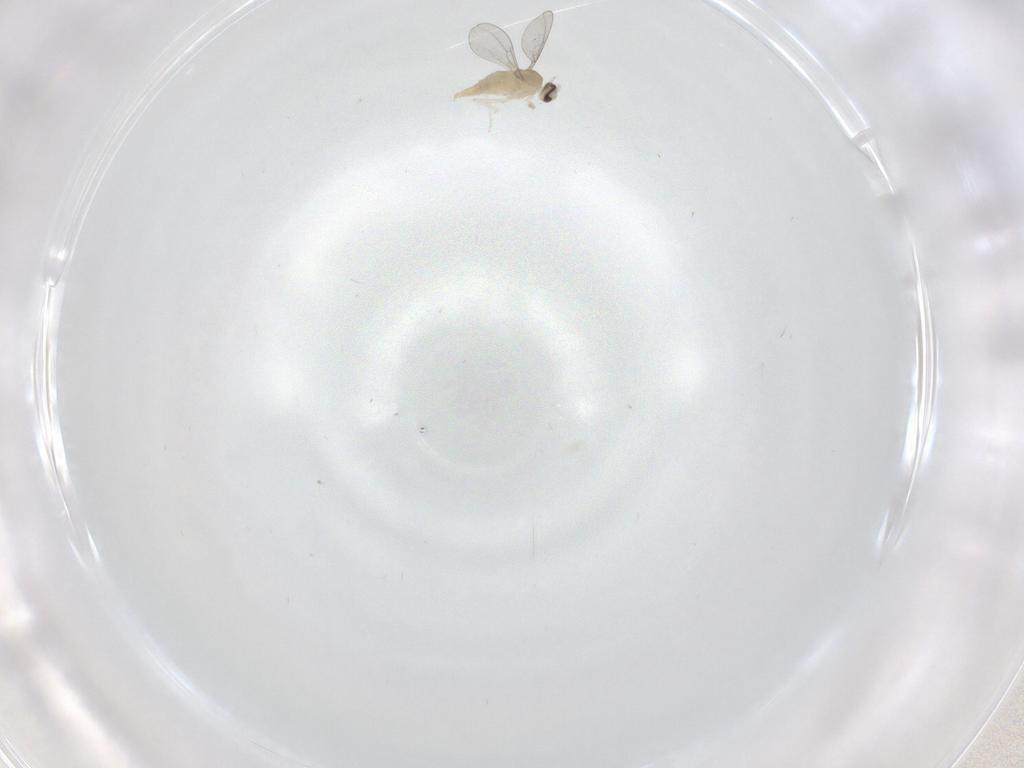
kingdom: Animalia
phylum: Arthropoda
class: Insecta
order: Diptera
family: Cecidomyiidae
